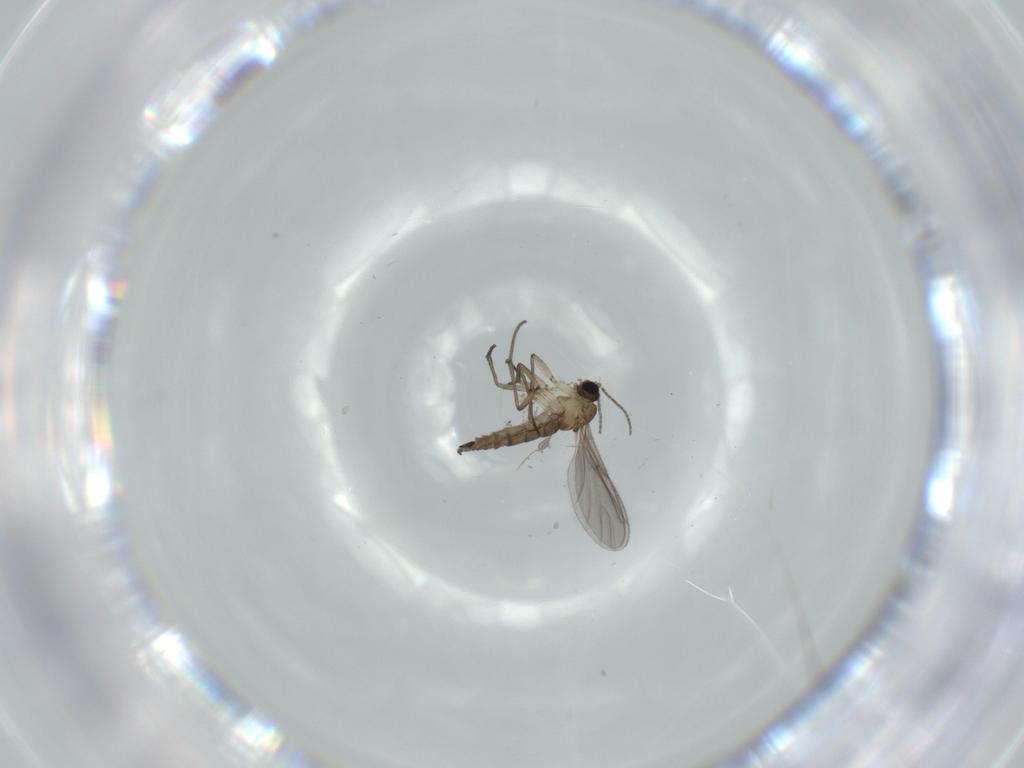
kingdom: Animalia
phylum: Arthropoda
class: Insecta
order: Diptera
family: Sciaridae
